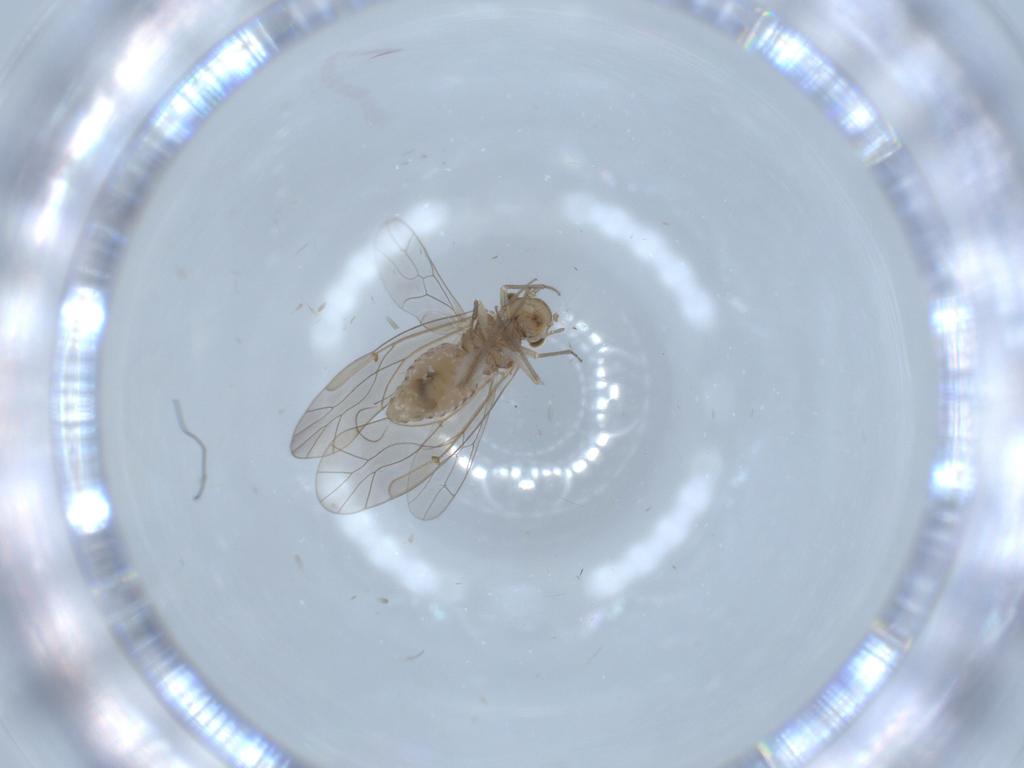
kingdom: Animalia
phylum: Arthropoda
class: Insecta
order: Psocodea
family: Lachesillidae
